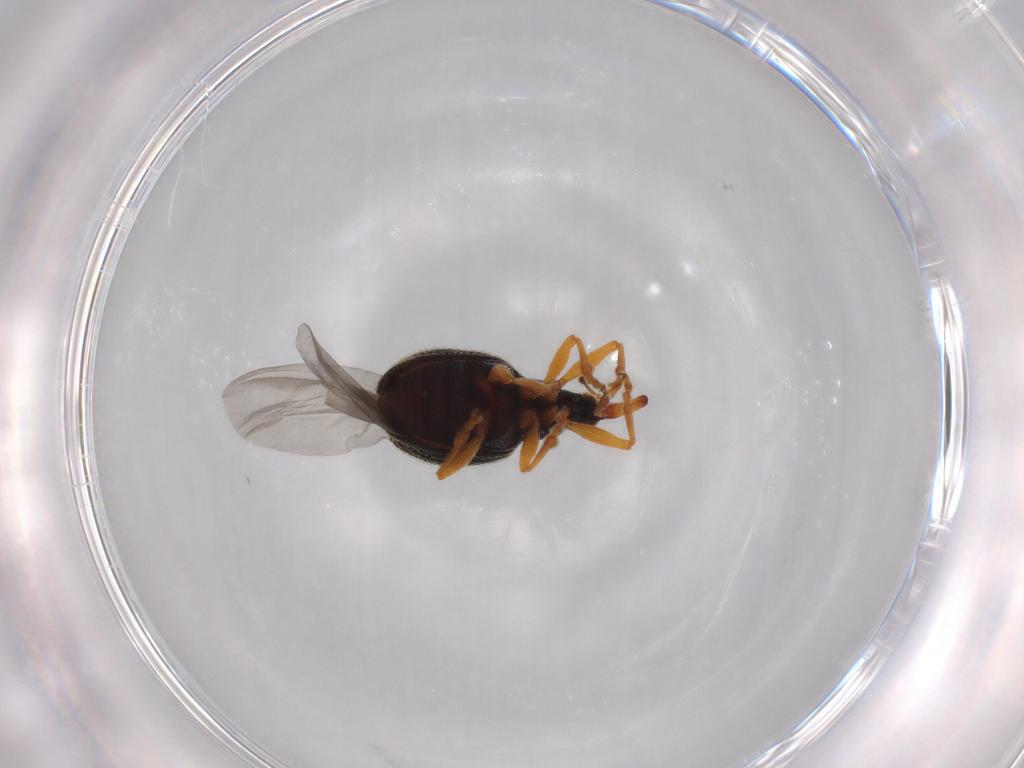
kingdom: Animalia
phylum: Arthropoda
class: Insecta
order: Coleoptera
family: Brentidae
